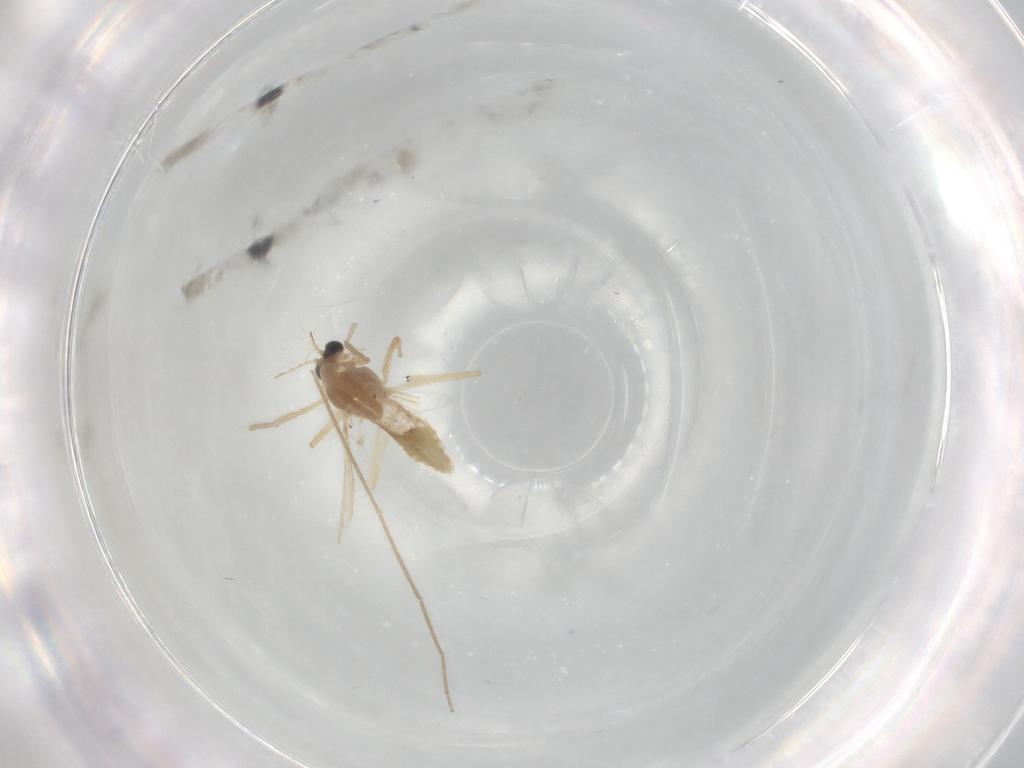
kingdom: Animalia
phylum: Arthropoda
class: Insecta
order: Diptera
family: Chironomidae
